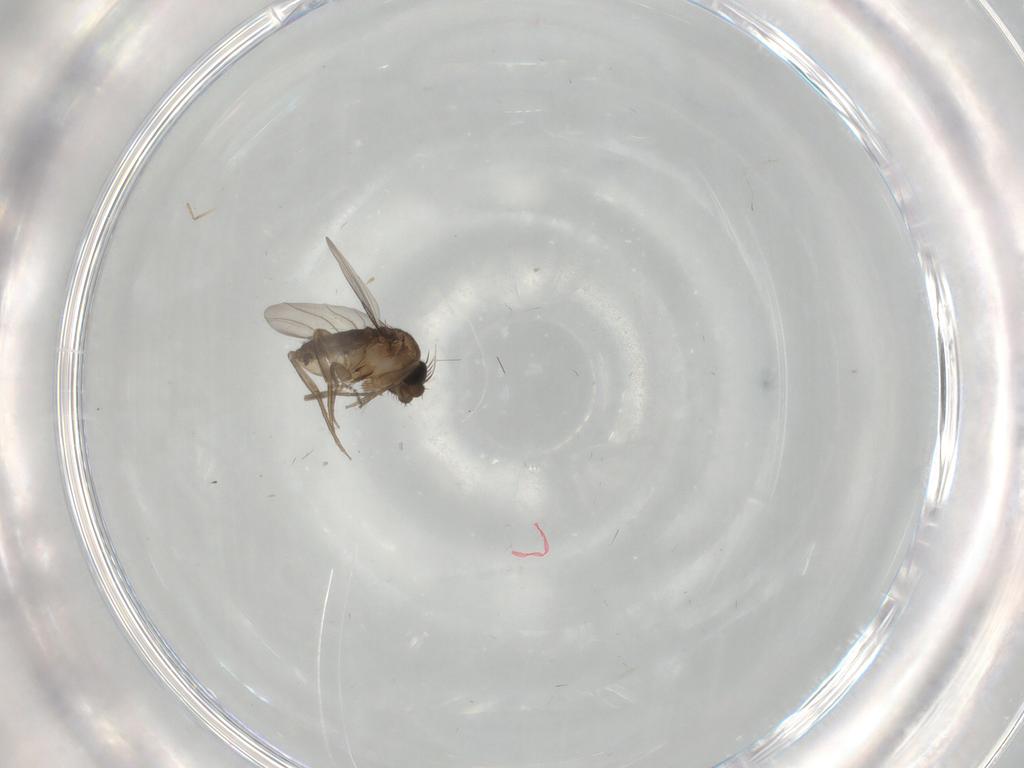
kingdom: Animalia
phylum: Arthropoda
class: Insecta
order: Diptera
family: Phoridae
